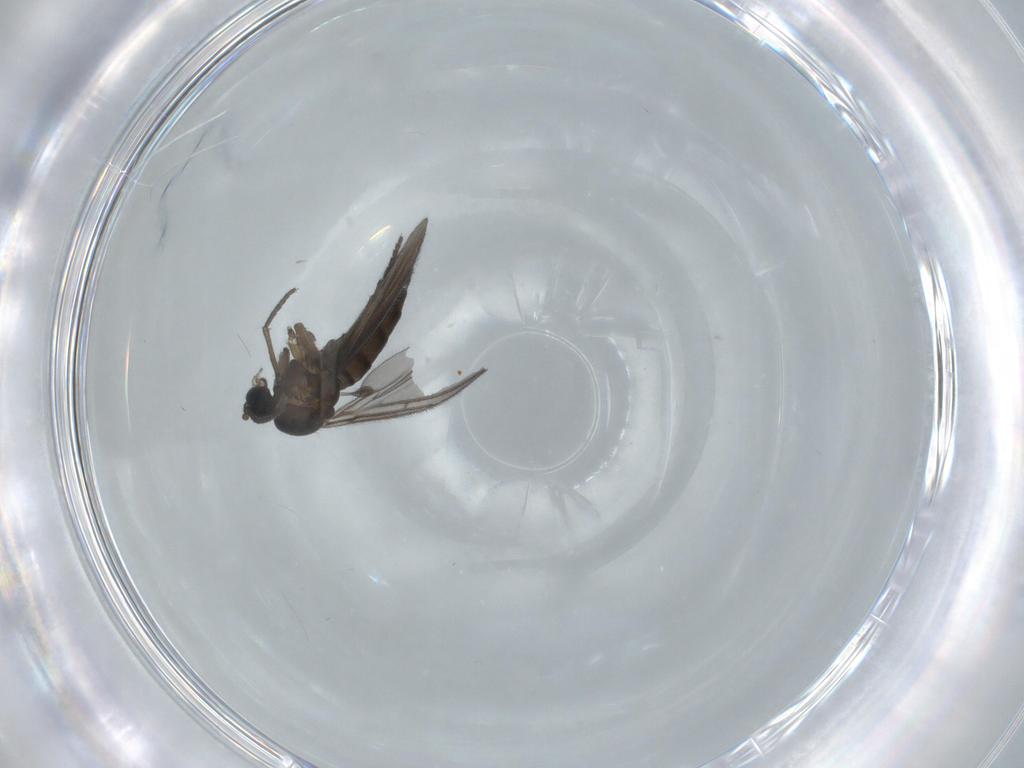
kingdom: Animalia
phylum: Arthropoda
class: Insecta
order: Diptera
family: Sciaridae
